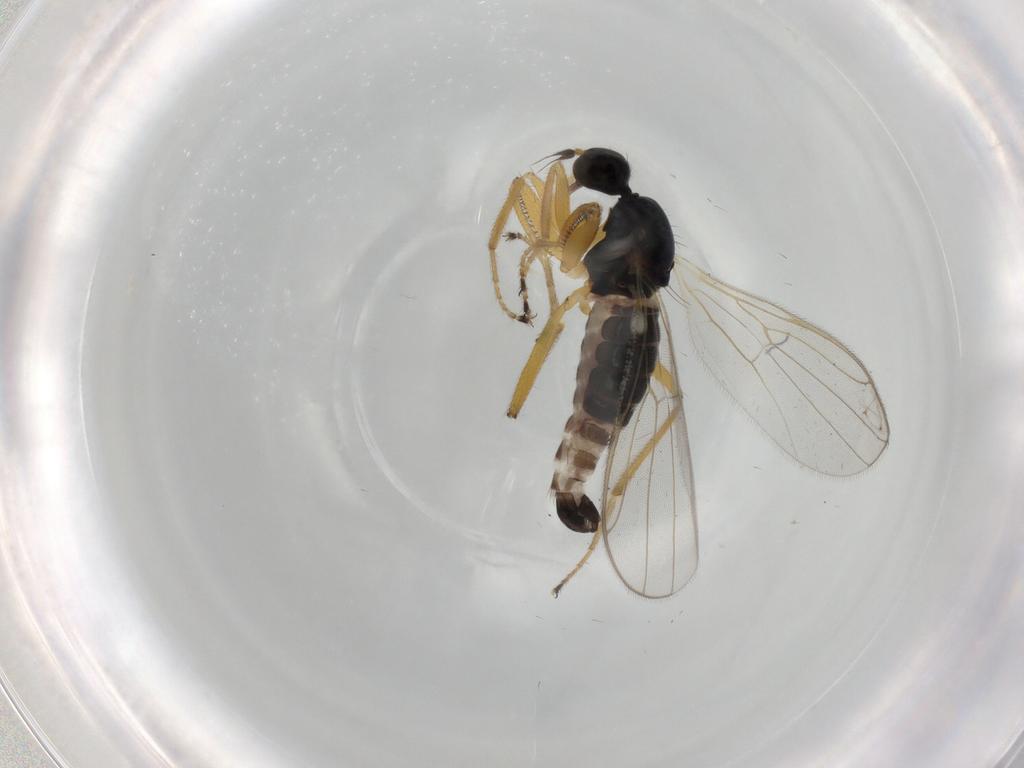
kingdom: Animalia
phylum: Arthropoda
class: Insecta
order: Diptera
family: Hybotidae
